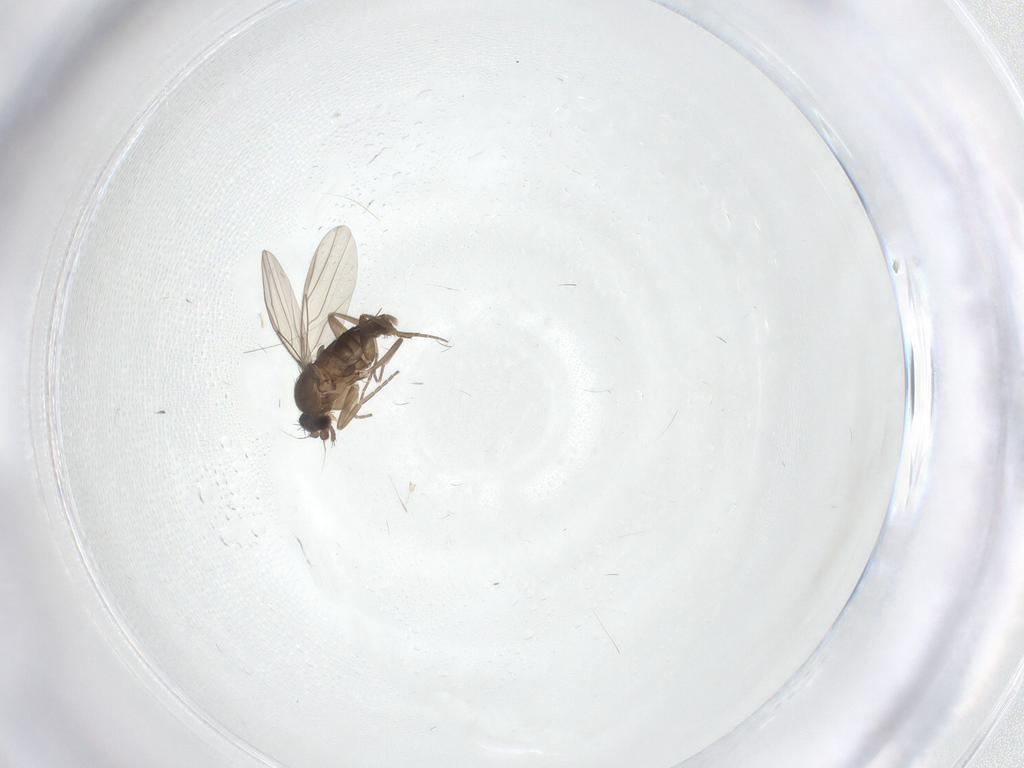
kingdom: Animalia
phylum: Arthropoda
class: Insecta
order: Diptera
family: Phoridae
